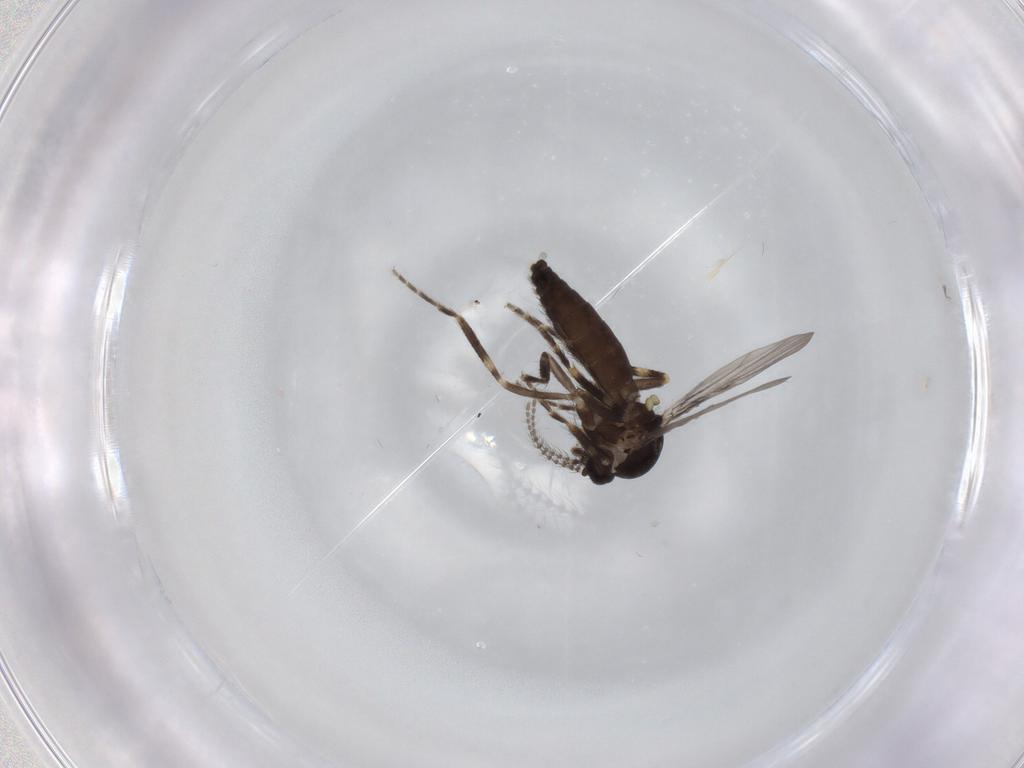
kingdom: Animalia
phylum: Arthropoda
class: Insecta
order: Diptera
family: Ceratopogonidae
